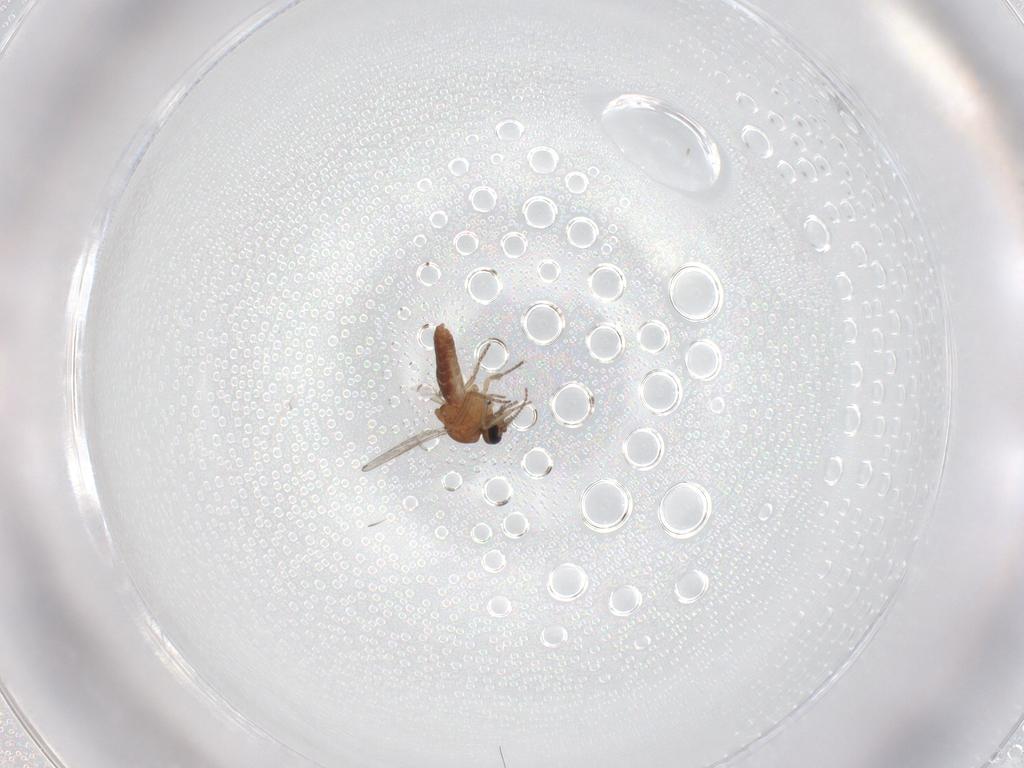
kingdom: Animalia
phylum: Arthropoda
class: Insecta
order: Diptera
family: Ceratopogonidae
